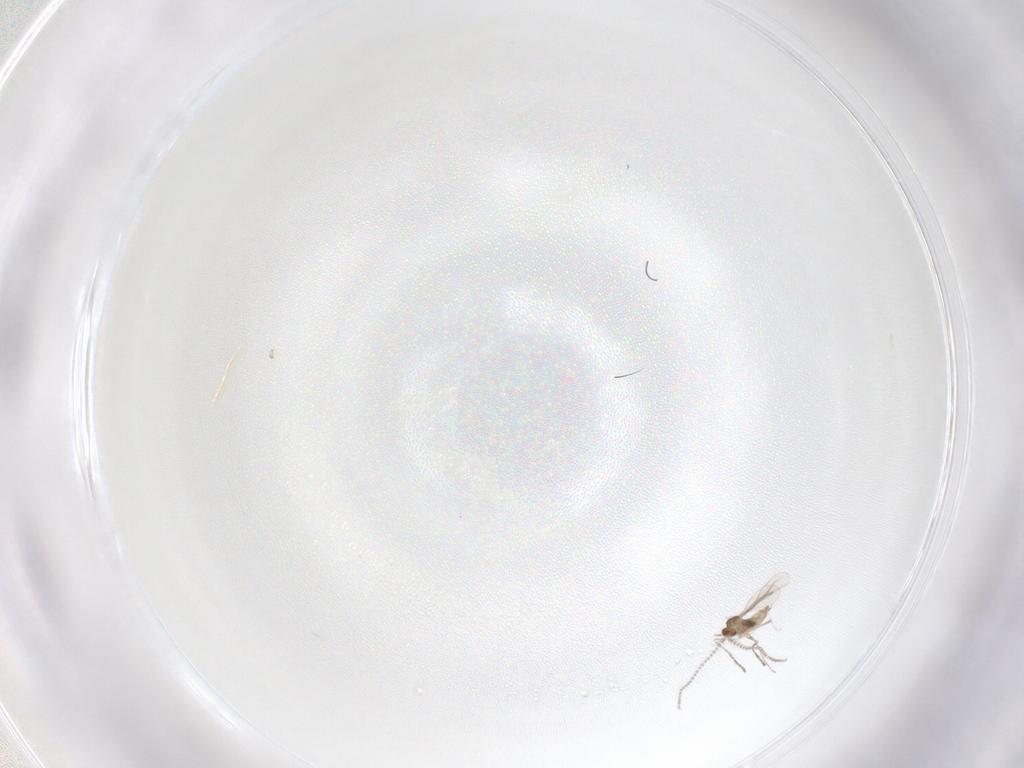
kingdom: Animalia
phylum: Arthropoda
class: Insecta
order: Diptera
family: Cecidomyiidae
